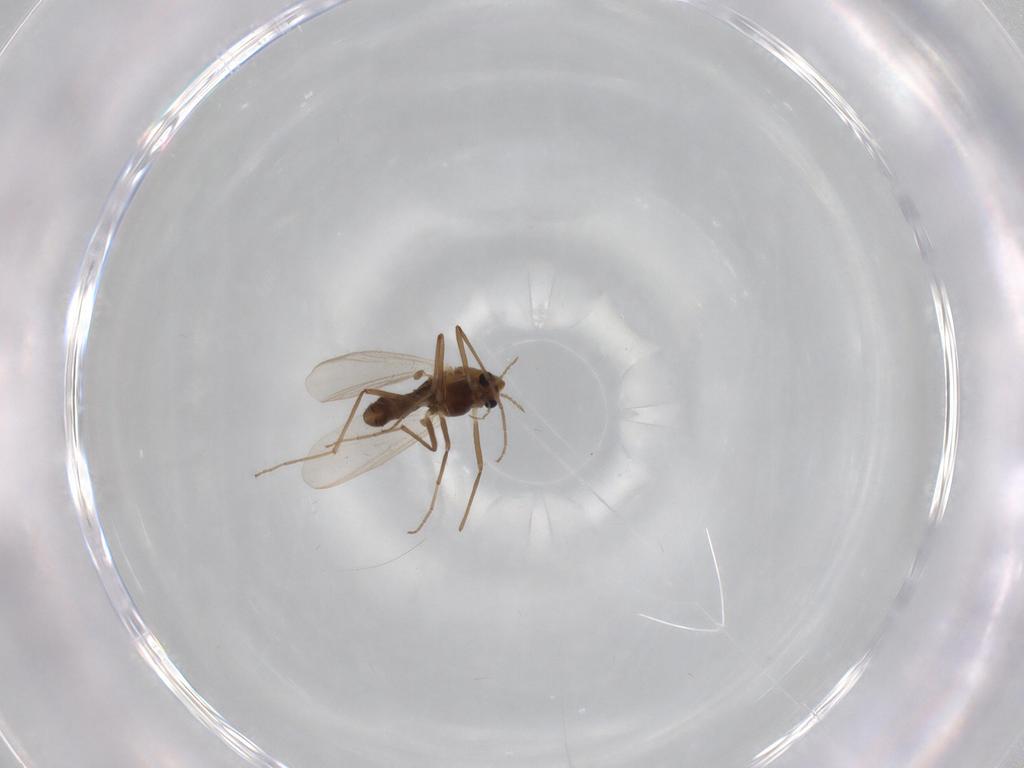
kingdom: Animalia
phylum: Arthropoda
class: Insecta
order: Diptera
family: Chironomidae
